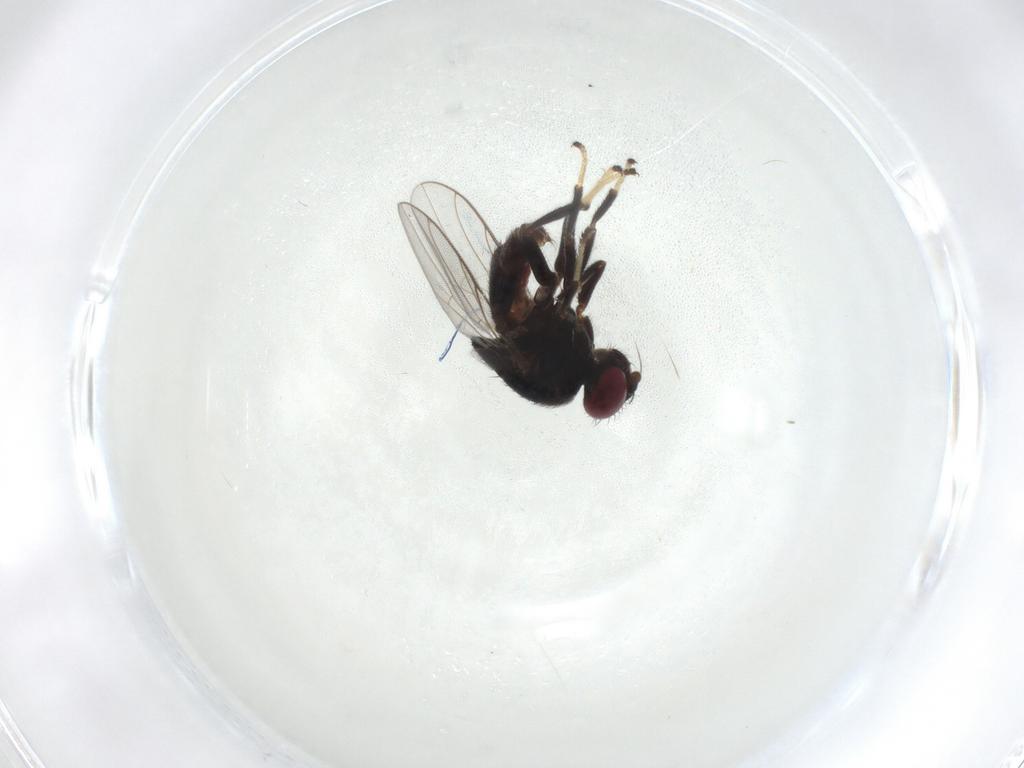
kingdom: Animalia
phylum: Arthropoda
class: Insecta
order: Diptera
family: Chloropidae
